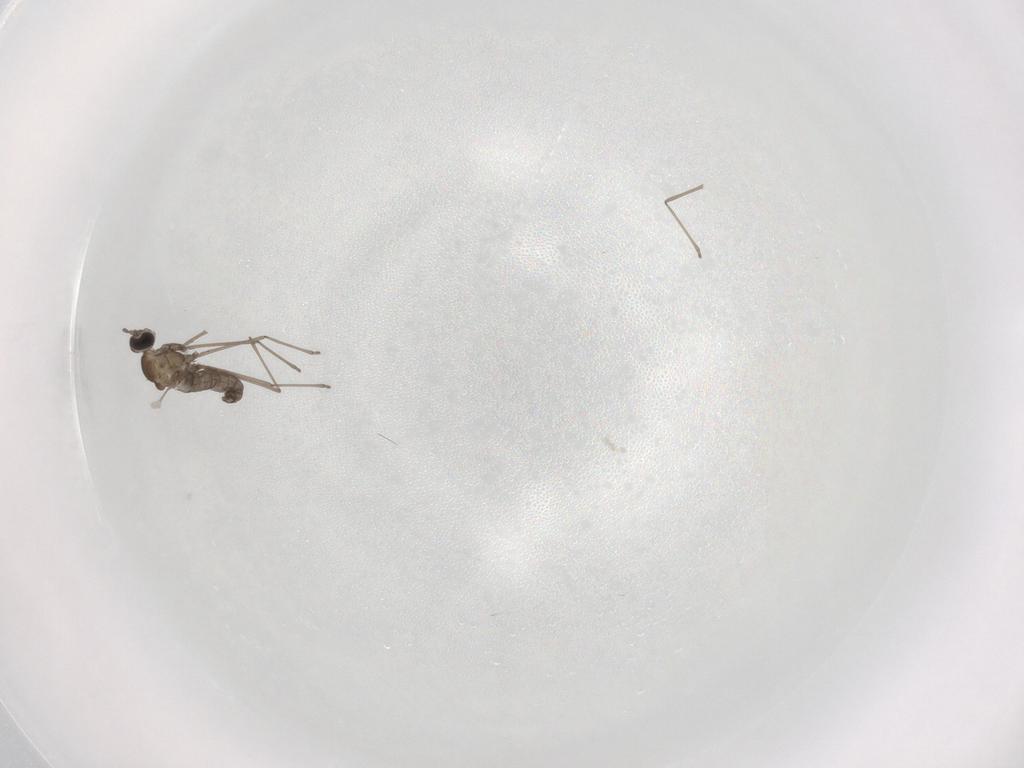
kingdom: Animalia
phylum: Arthropoda
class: Insecta
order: Diptera
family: Cecidomyiidae
